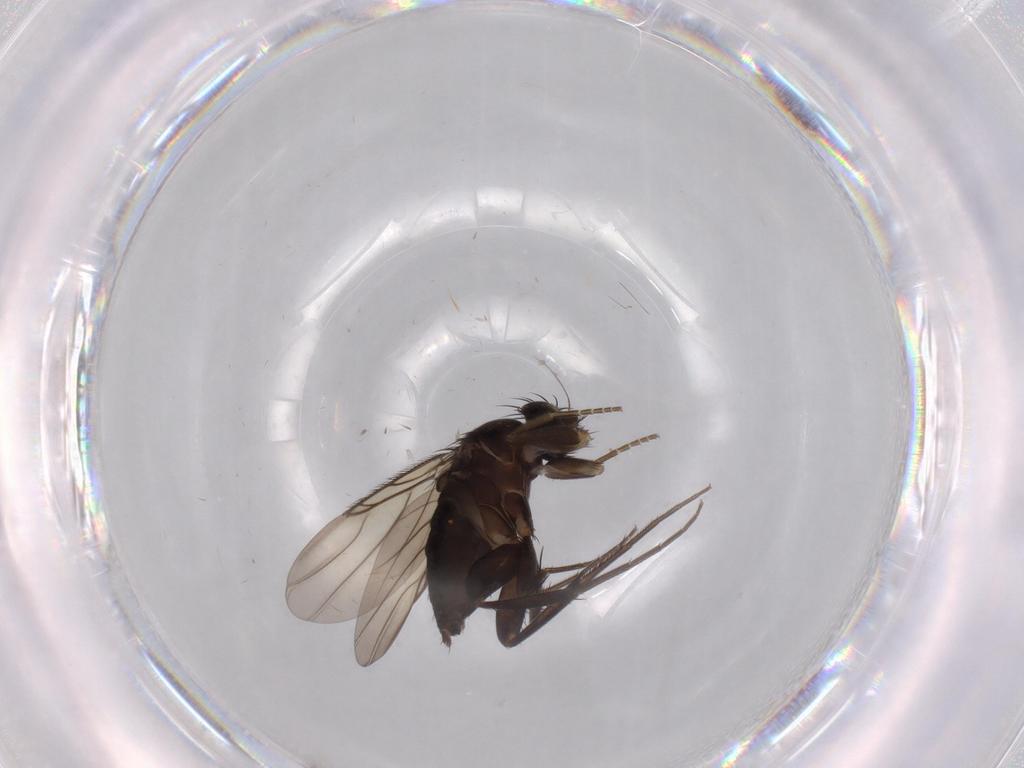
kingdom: Animalia
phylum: Arthropoda
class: Insecta
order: Diptera
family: Phoridae
